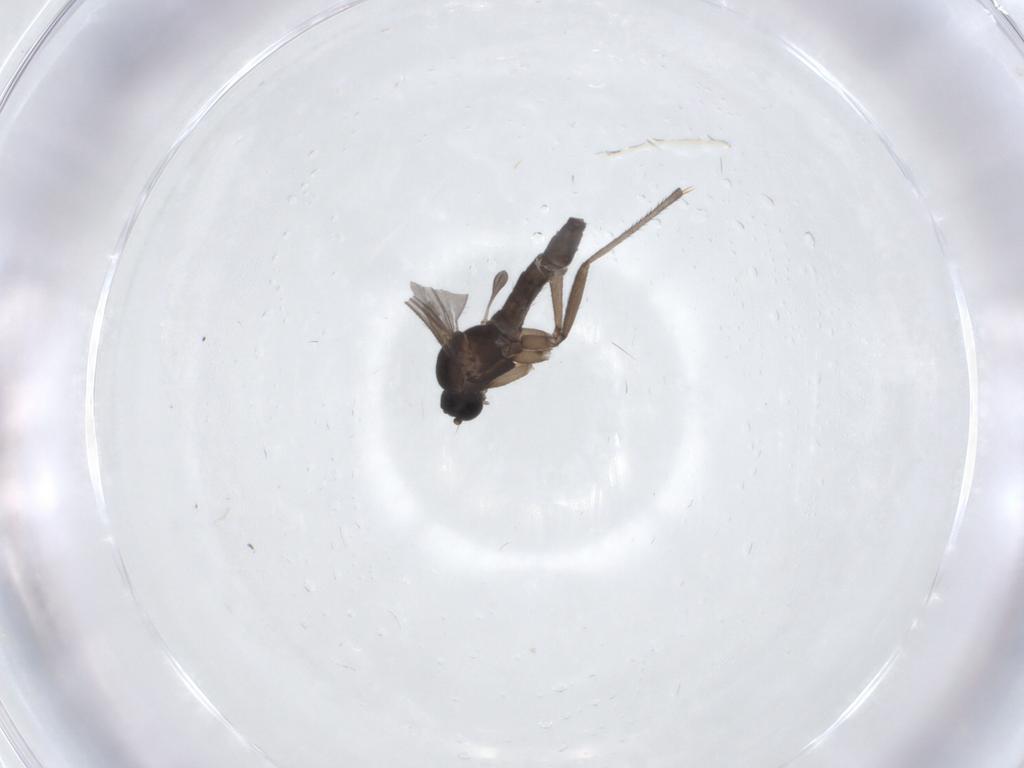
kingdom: Animalia
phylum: Arthropoda
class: Insecta
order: Diptera
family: Sciaridae
